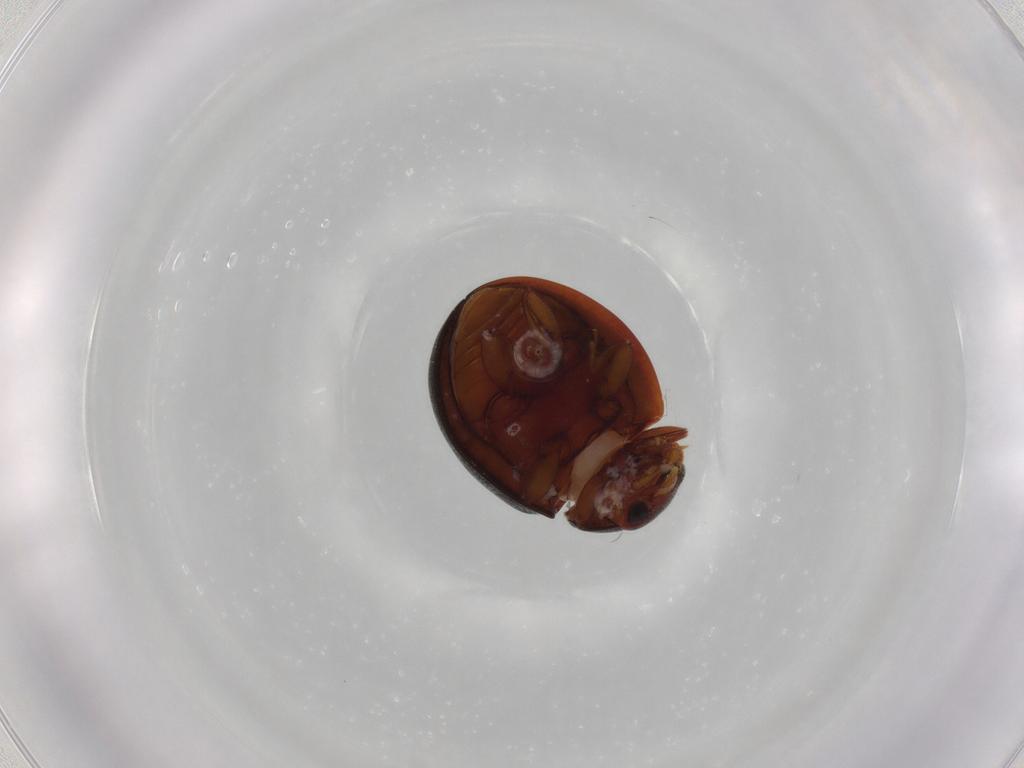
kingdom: Animalia
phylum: Arthropoda
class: Insecta
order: Coleoptera
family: Coccinellidae
